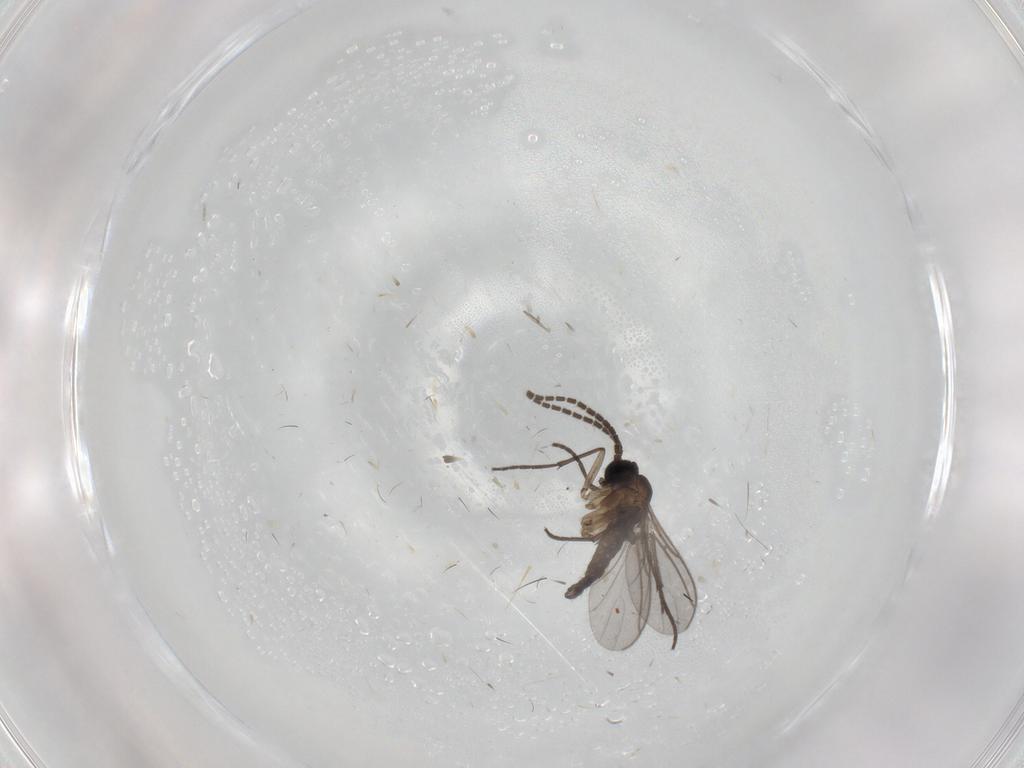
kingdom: Animalia
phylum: Arthropoda
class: Insecta
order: Diptera
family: Sciaridae
